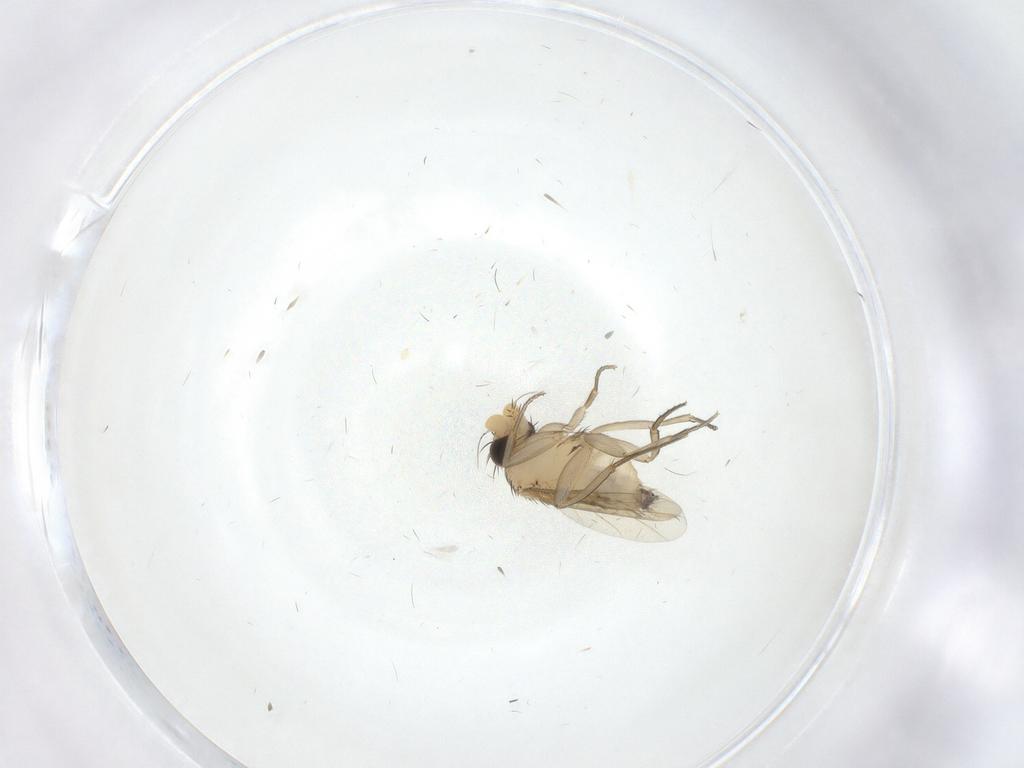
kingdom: Animalia
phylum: Arthropoda
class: Insecta
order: Diptera
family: Phoridae
